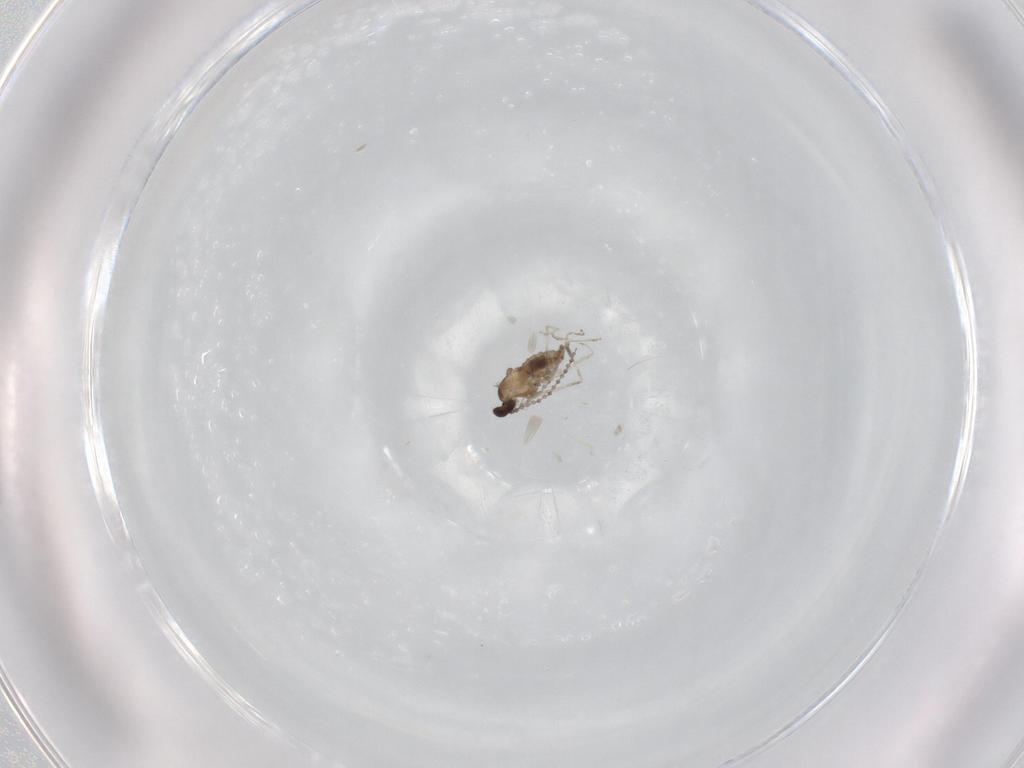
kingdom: Animalia
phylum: Arthropoda
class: Insecta
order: Diptera
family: Cecidomyiidae
